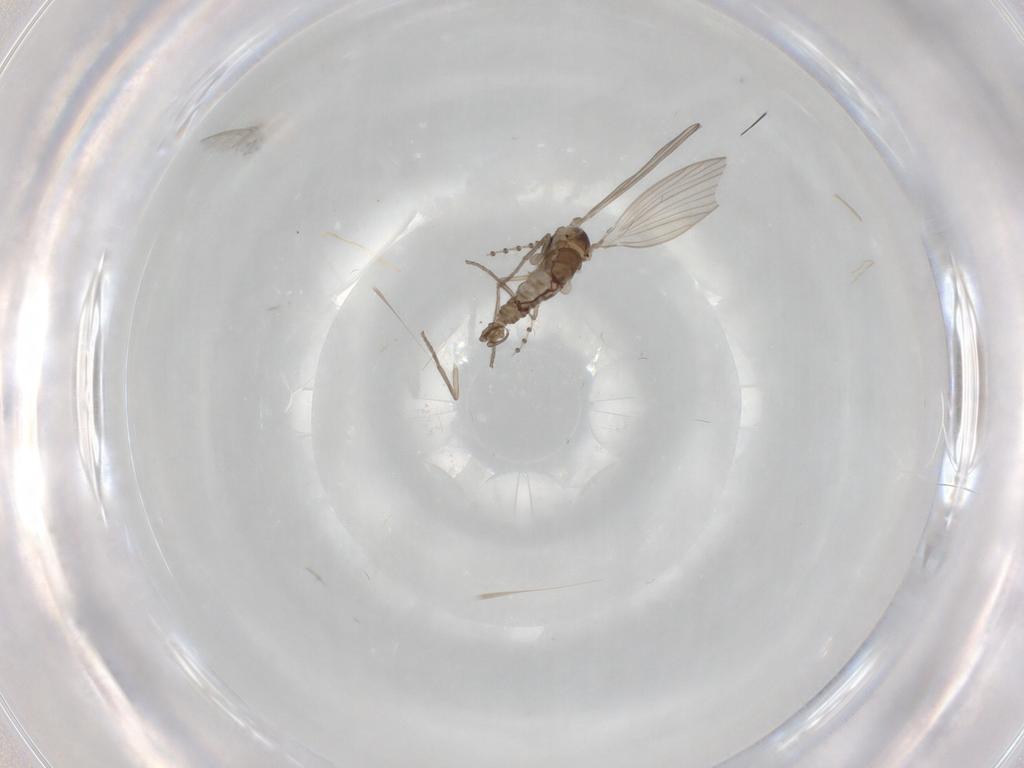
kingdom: Animalia
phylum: Arthropoda
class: Insecta
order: Diptera
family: Psychodidae
